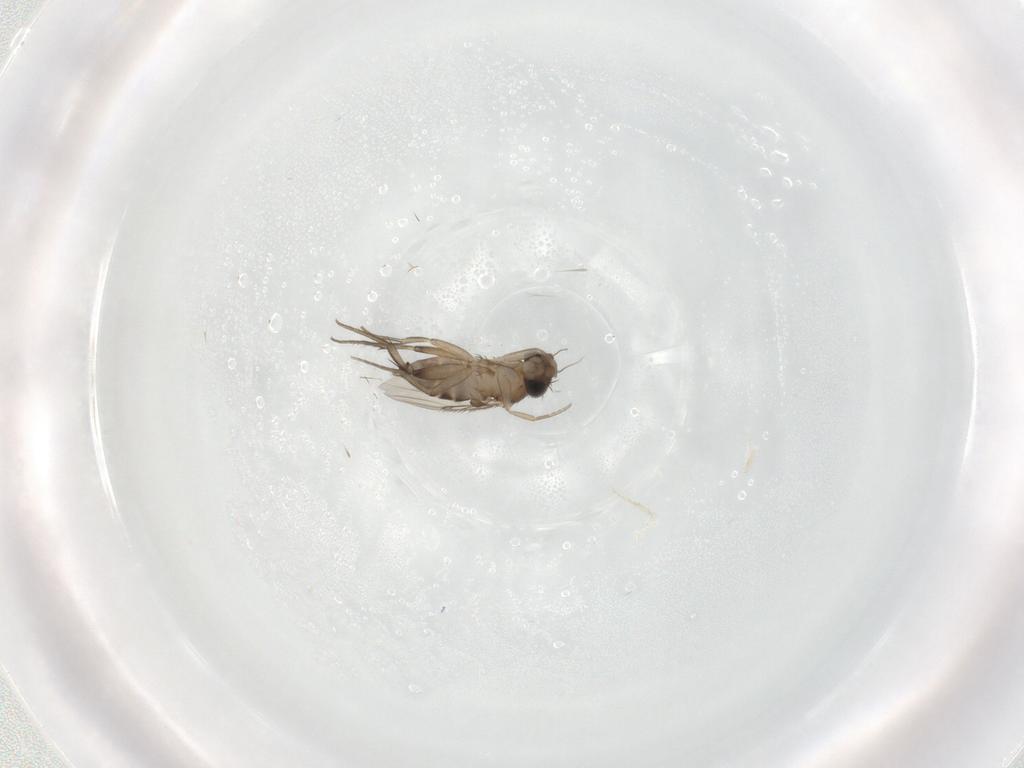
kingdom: Animalia
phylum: Arthropoda
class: Insecta
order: Diptera
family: Phoridae
